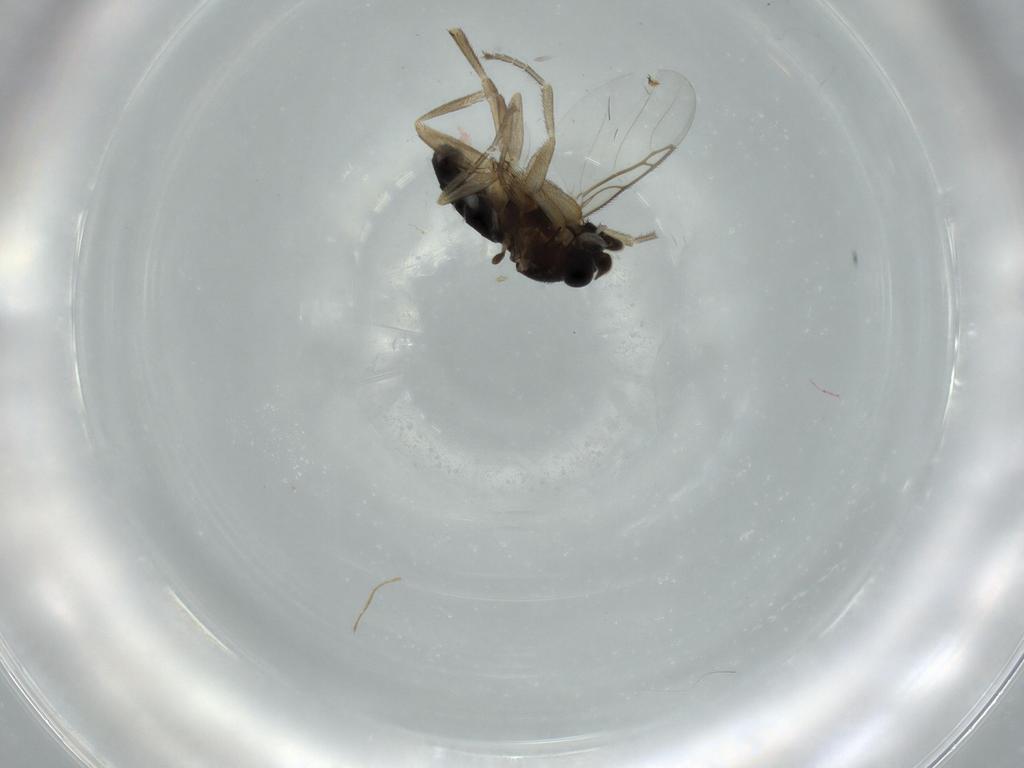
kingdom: Animalia
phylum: Arthropoda
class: Insecta
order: Diptera
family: Phoridae
